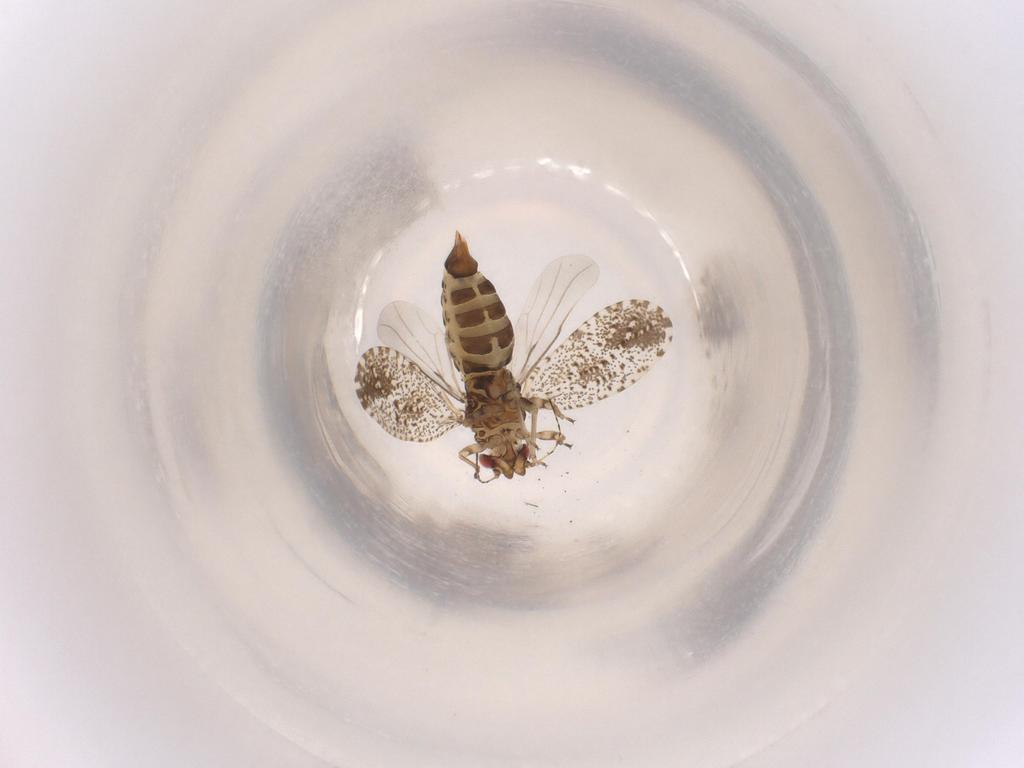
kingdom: Animalia
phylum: Arthropoda
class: Insecta
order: Diptera
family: Dolichopodidae
